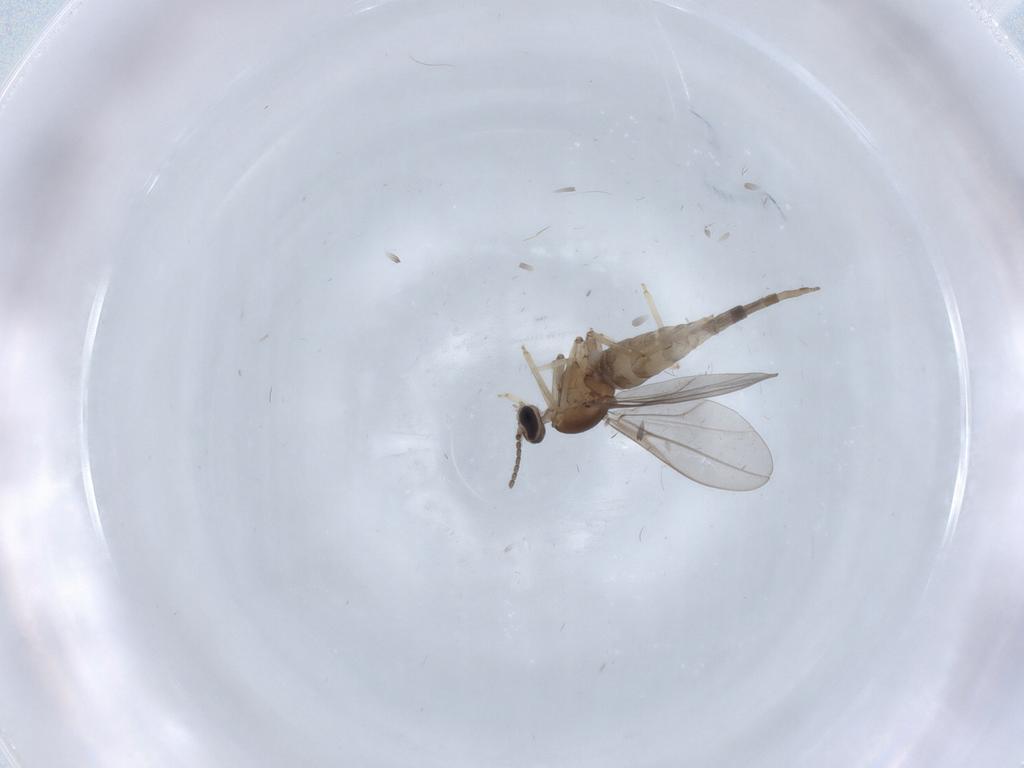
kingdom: Animalia
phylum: Arthropoda
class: Insecta
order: Diptera
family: Cecidomyiidae
